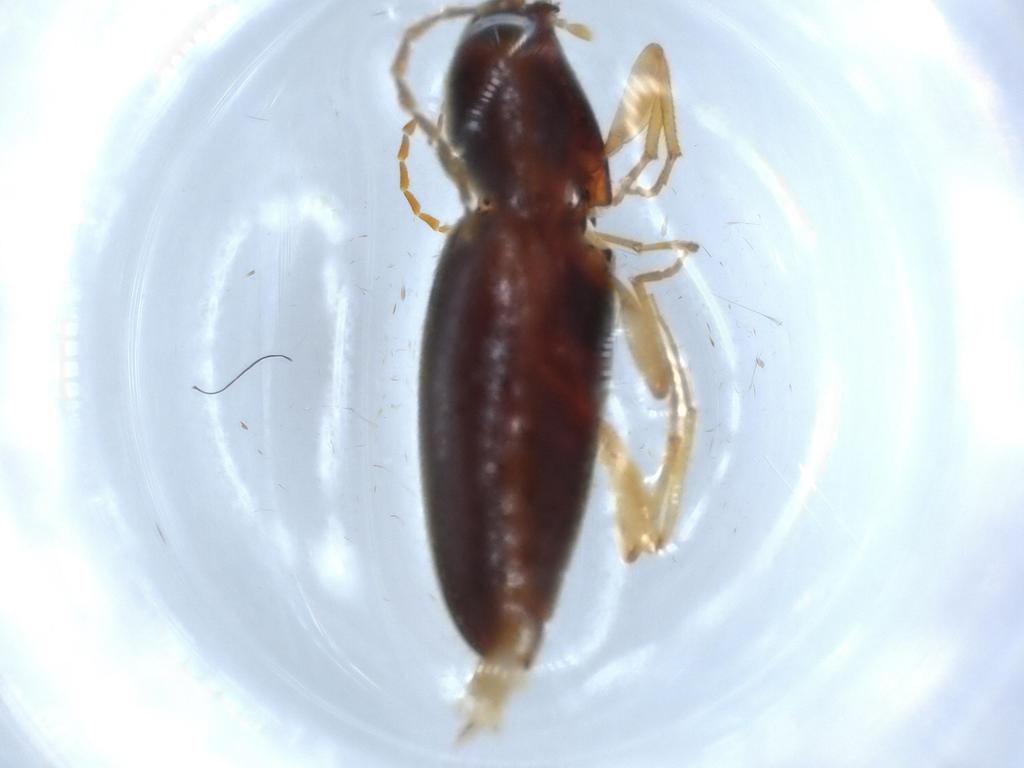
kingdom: Animalia
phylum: Arthropoda
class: Insecta
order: Coleoptera
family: Elateridae
